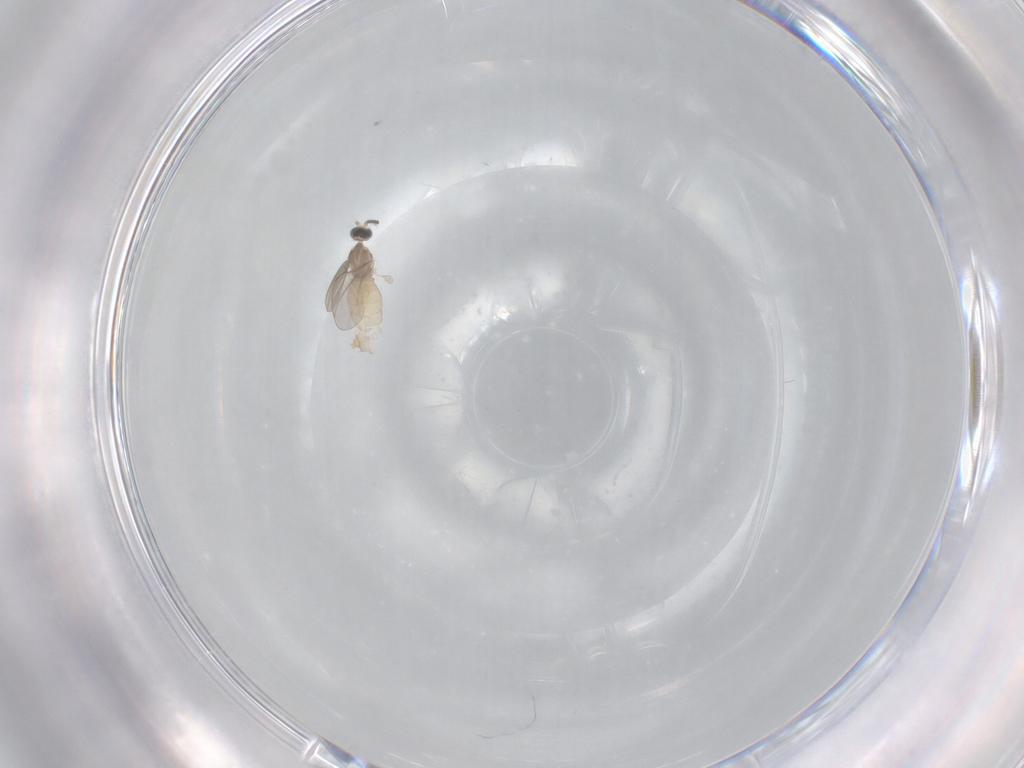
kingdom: Animalia
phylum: Arthropoda
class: Insecta
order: Diptera
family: Cecidomyiidae
